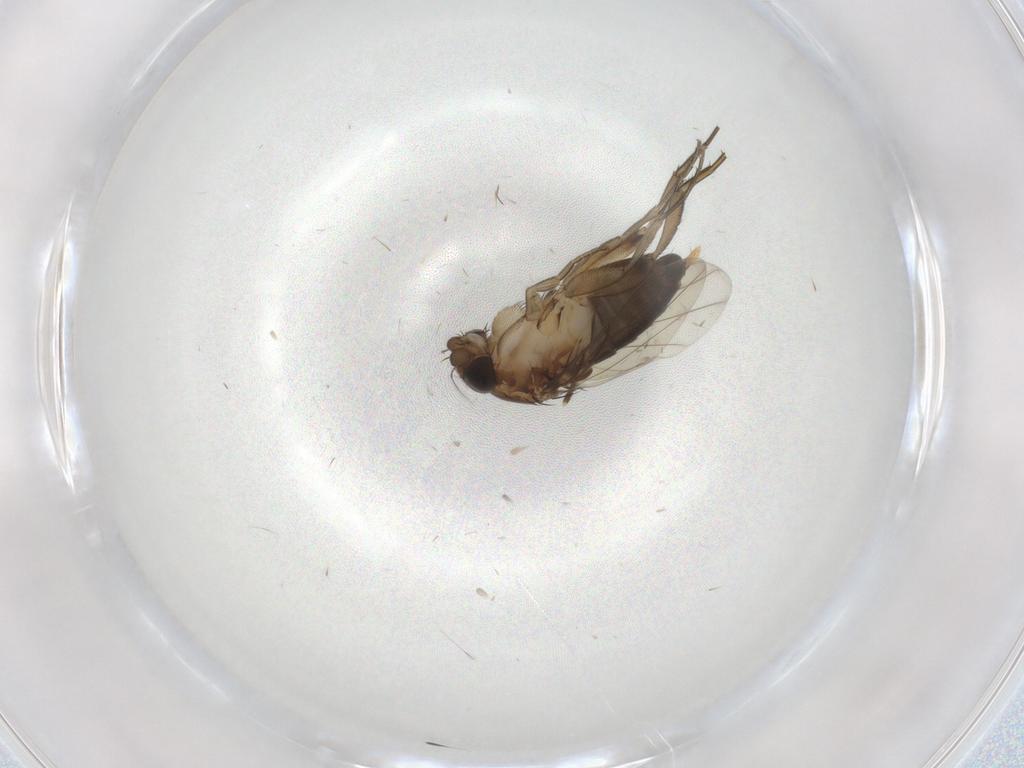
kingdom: Animalia
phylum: Arthropoda
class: Insecta
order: Diptera
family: Phoridae
